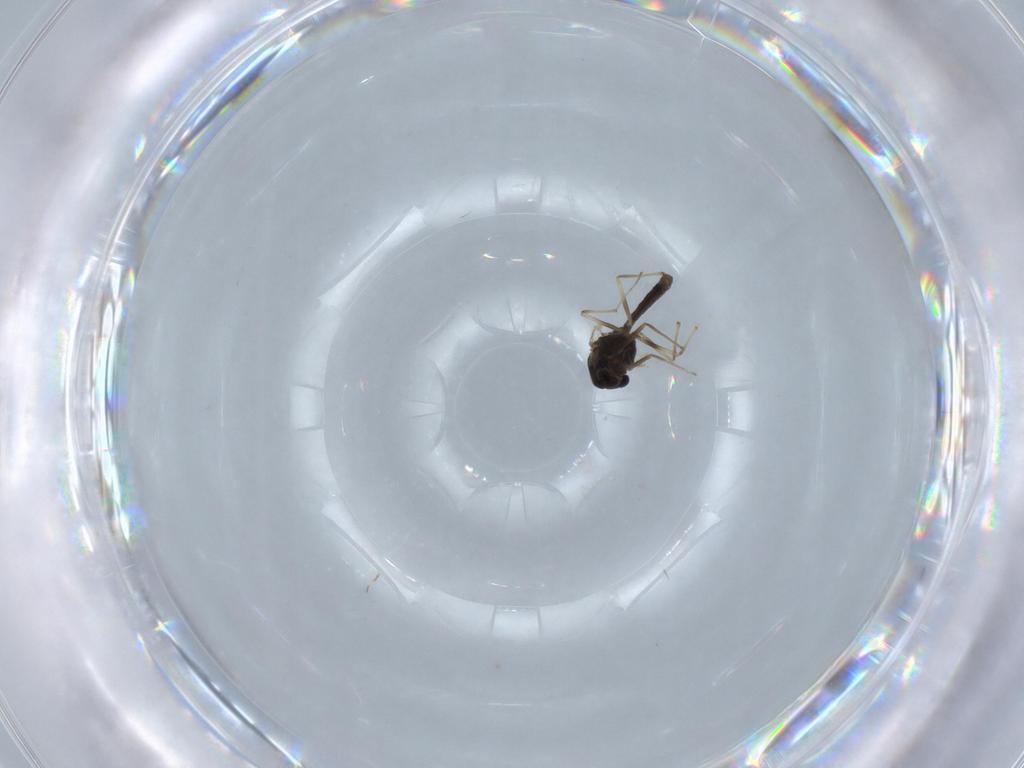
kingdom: Animalia
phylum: Arthropoda
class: Insecta
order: Diptera
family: Chironomidae
